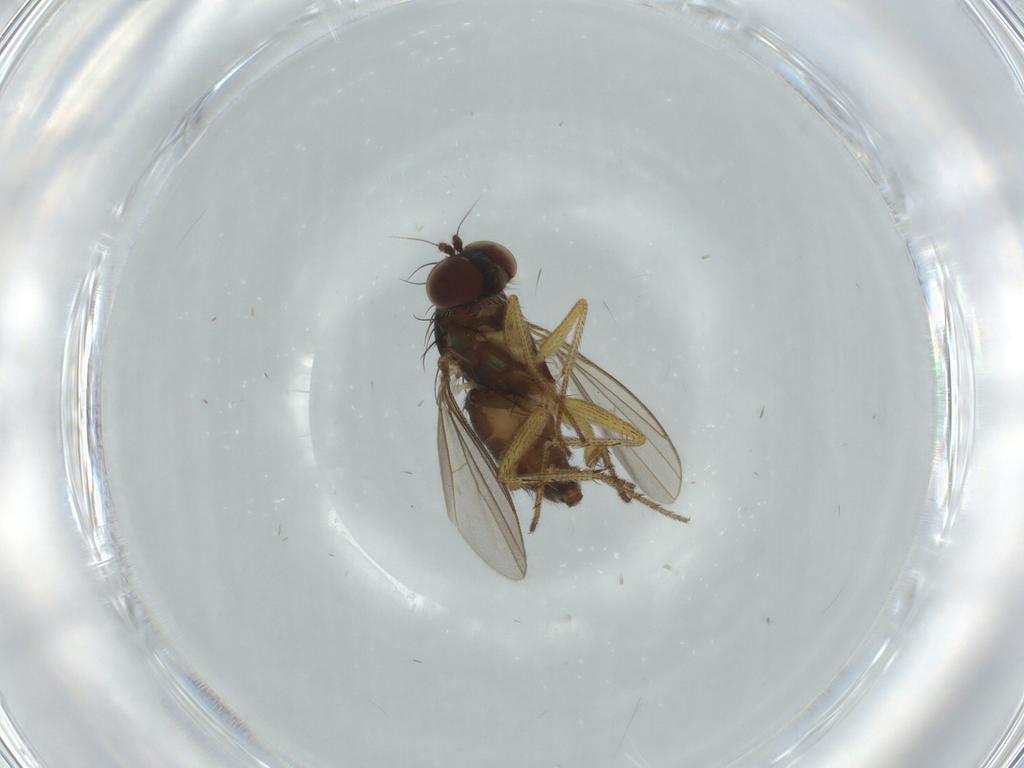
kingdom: Animalia
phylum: Arthropoda
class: Insecta
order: Diptera
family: Dolichopodidae
